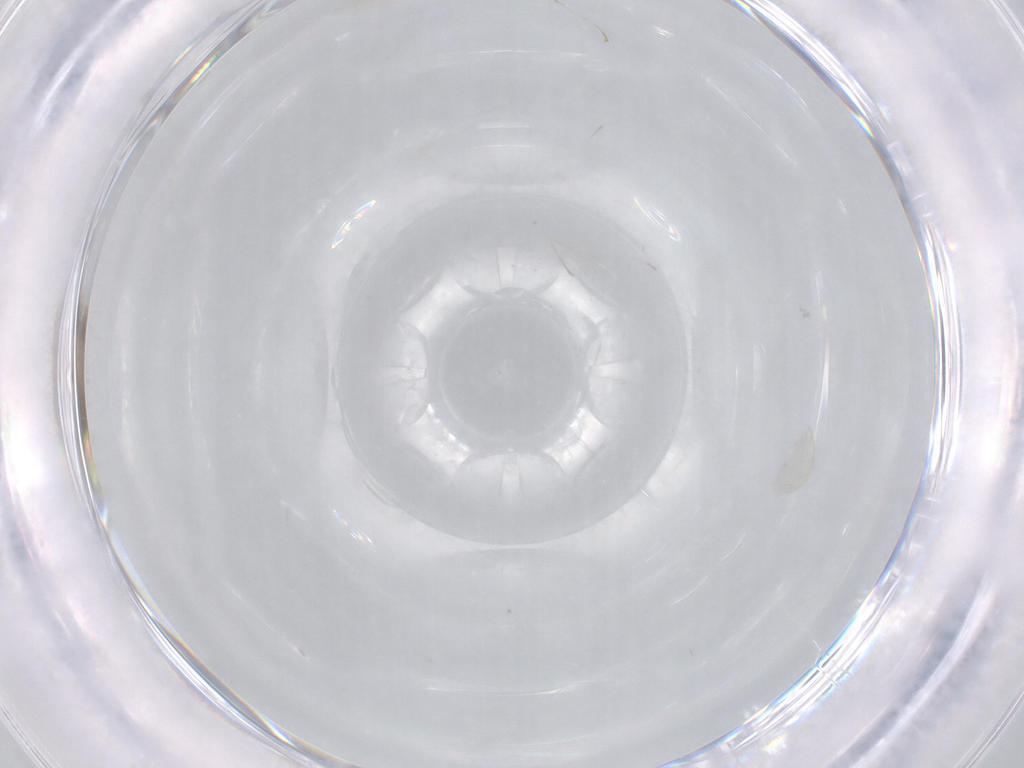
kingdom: Animalia
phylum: Arthropoda
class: Insecta
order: Diptera
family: Cecidomyiidae
